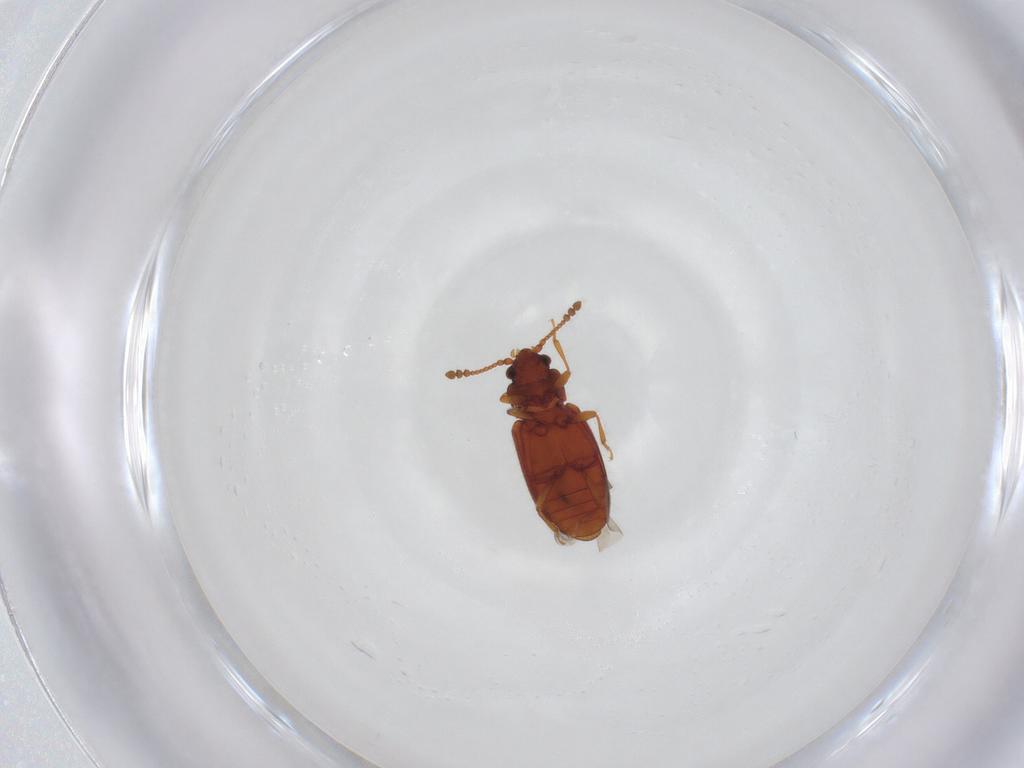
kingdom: Animalia
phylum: Arthropoda
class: Insecta
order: Coleoptera
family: Cryptophagidae
